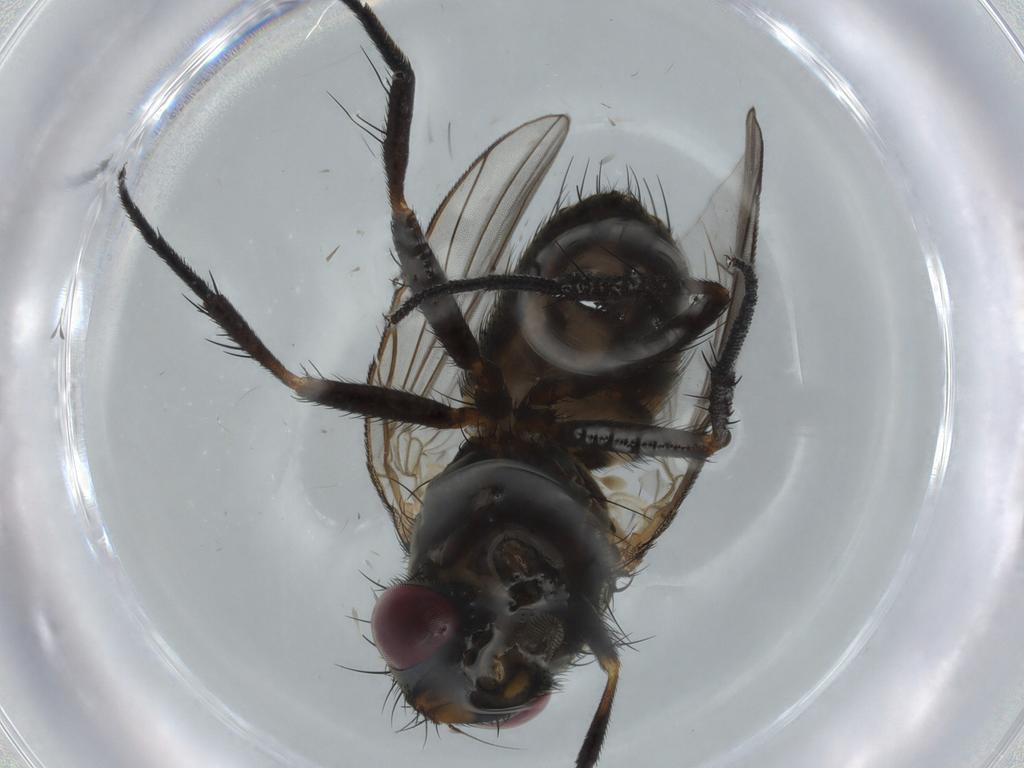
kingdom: Animalia
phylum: Arthropoda
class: Insecta
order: Diptera
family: Fannia
